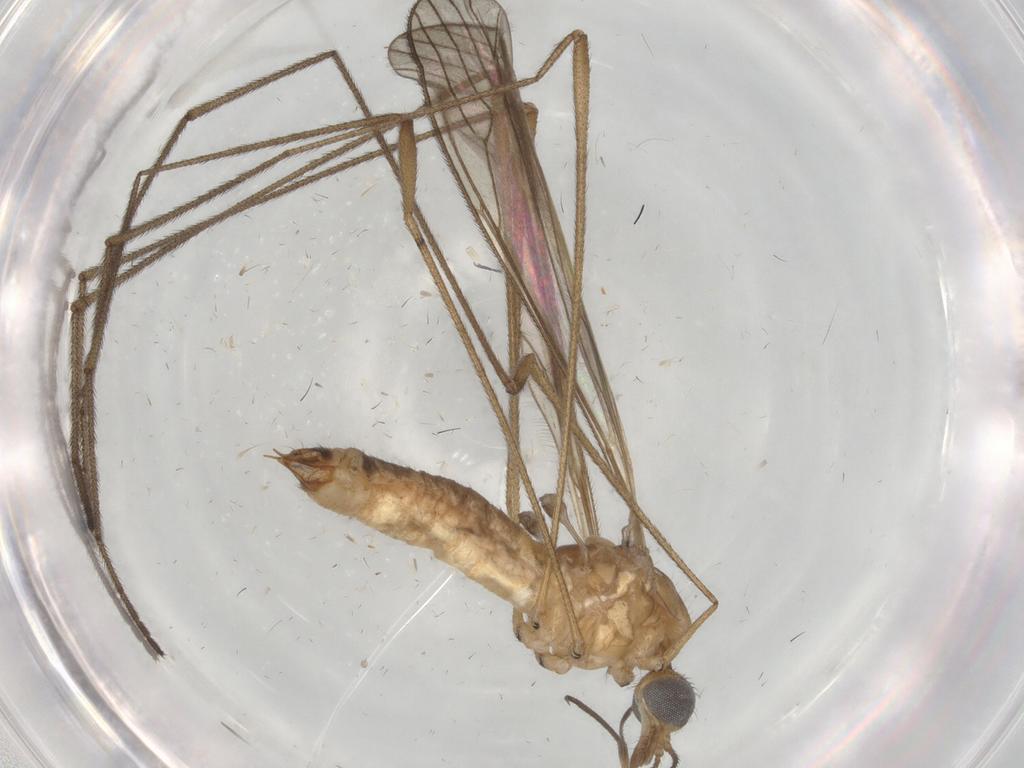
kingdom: Animalia
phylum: Arthropoda
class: Insecta
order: Diptera
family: Dolichopodidae
